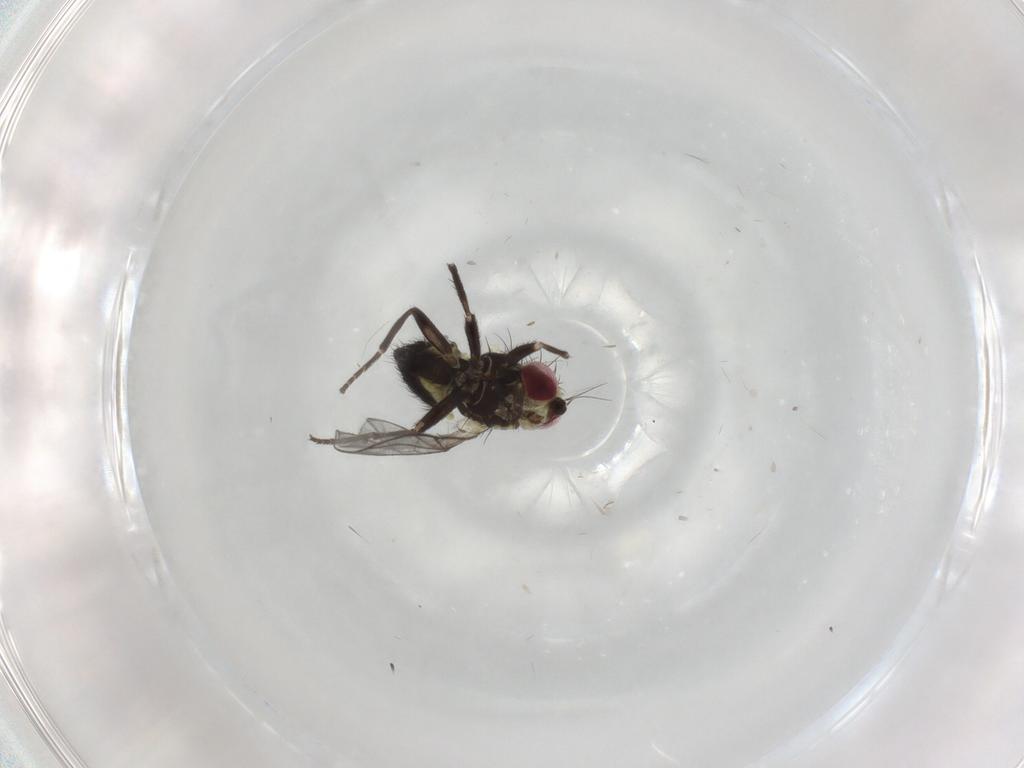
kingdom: Animalia
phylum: Arthropoda
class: Insecta
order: Diptera
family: Agromyzidae
